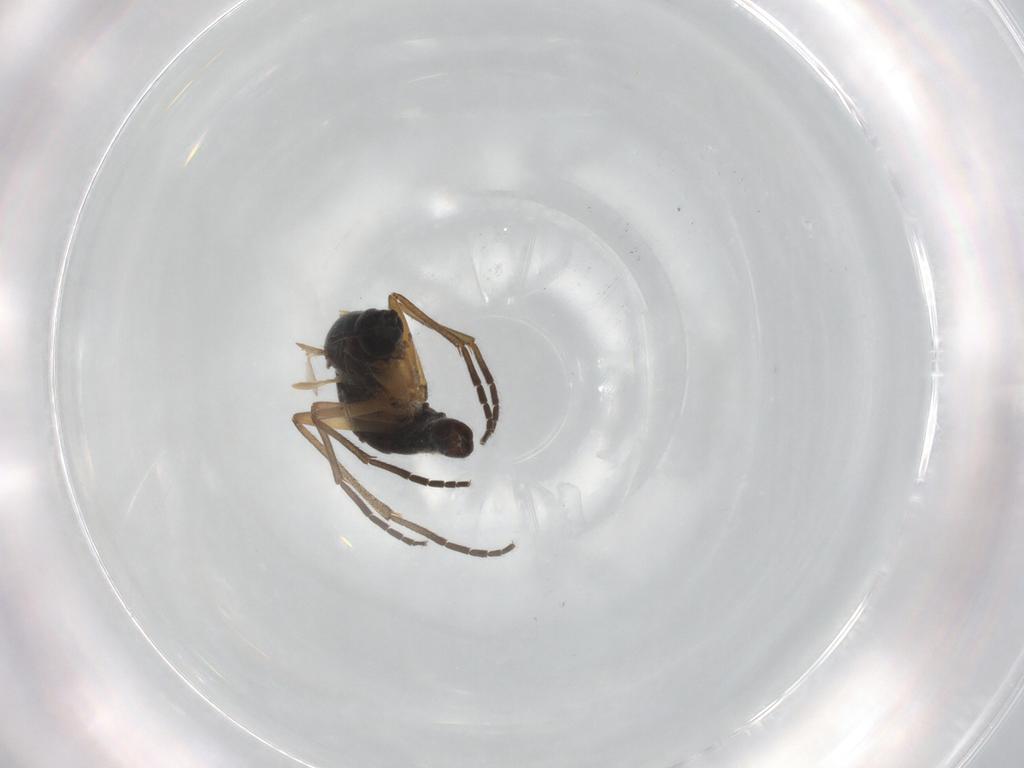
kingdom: Animalia
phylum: Arthropoda
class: Insecta
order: Diptera
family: Sciaridae
